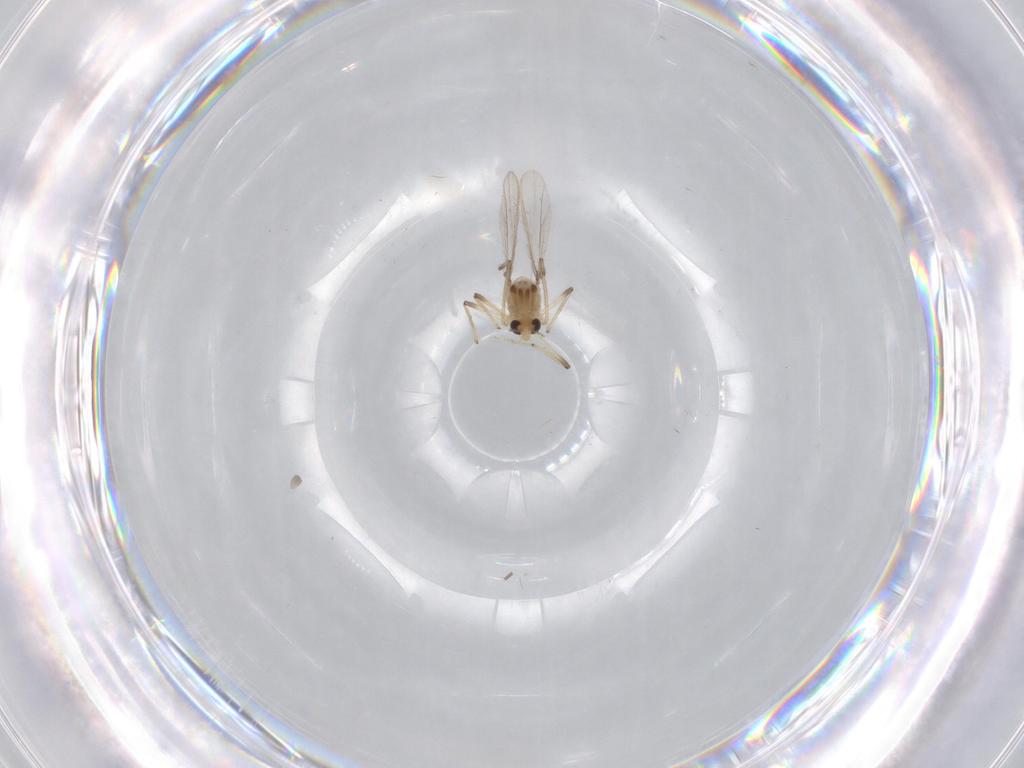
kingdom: Animalia
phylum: Arthropoda
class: Insecta
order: Diptera
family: Chironomidae
